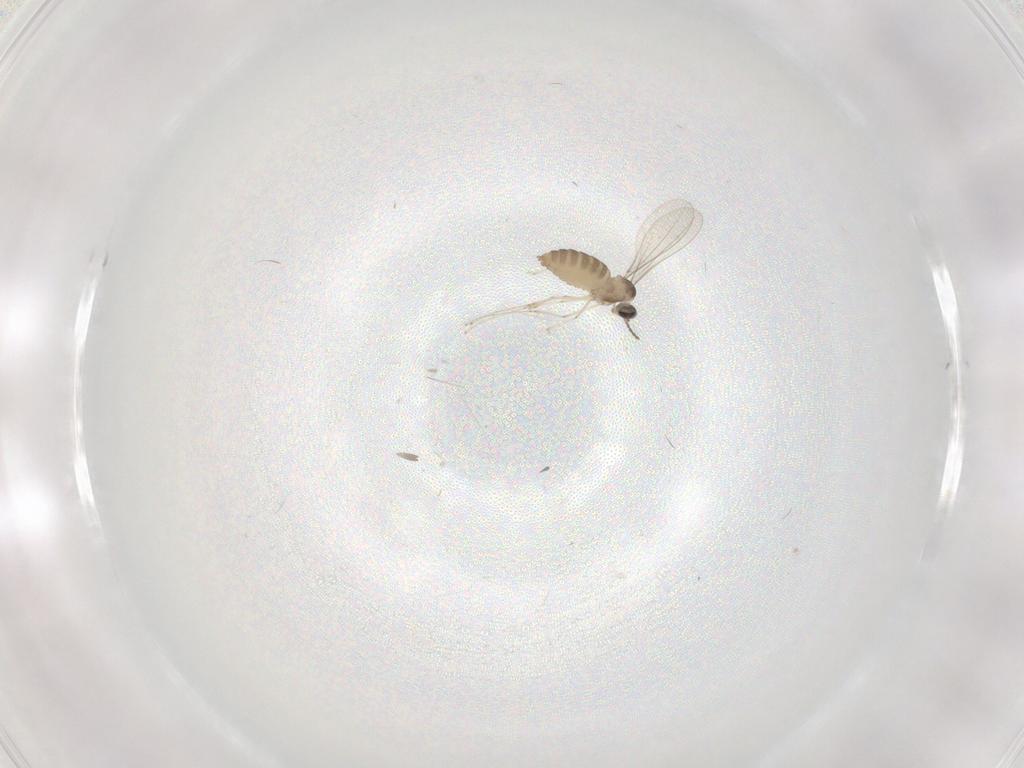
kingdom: Animalia
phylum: Arthropoda
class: Insecta
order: Diptera
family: Cecidomyiidae
